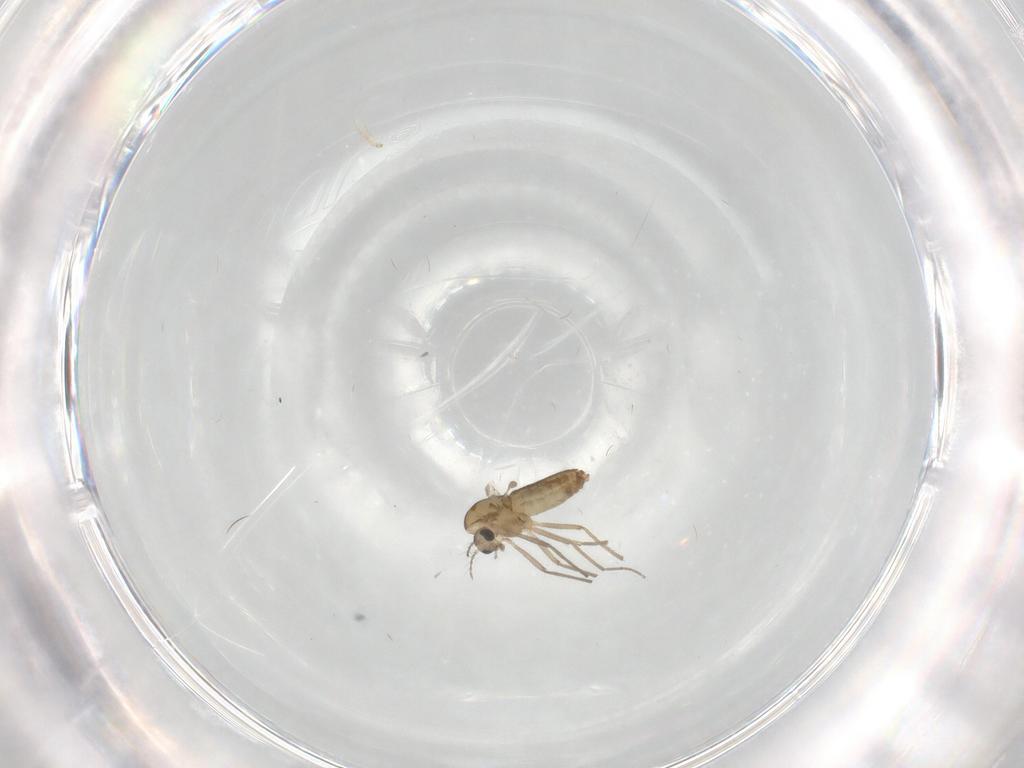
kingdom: Animalia
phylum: Arthropoda
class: Insecta
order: Diptera
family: Chironomidae
